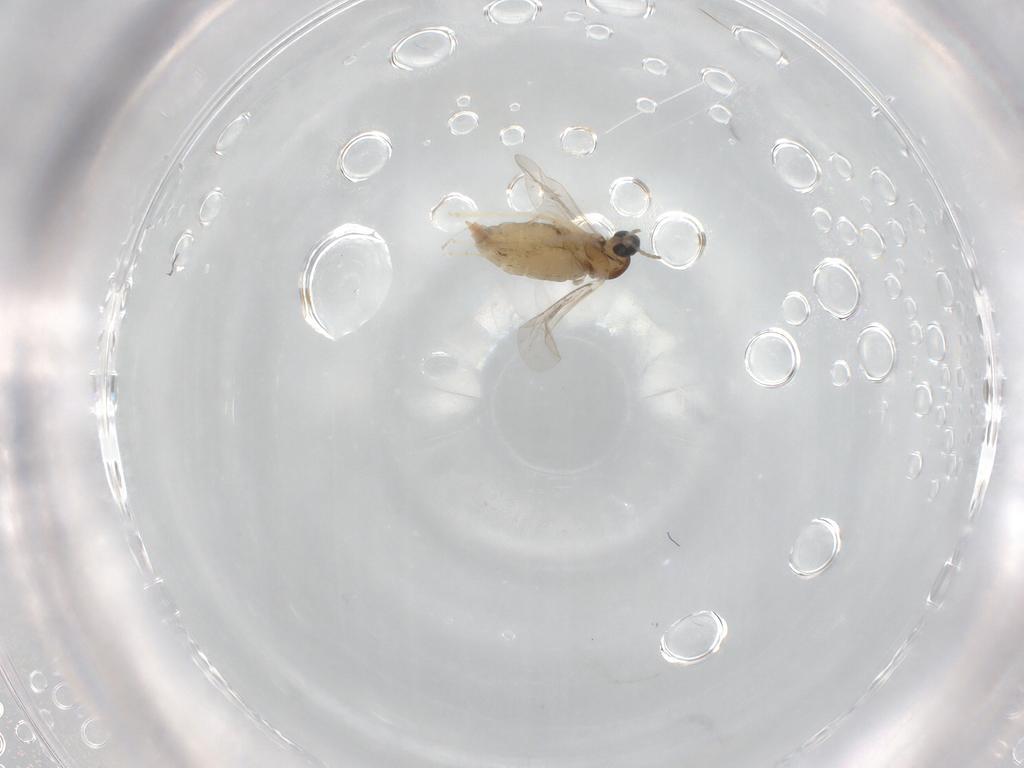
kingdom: Animalia
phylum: Arthropoda
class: Insecta
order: Diptera
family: Cecidomyiidae
